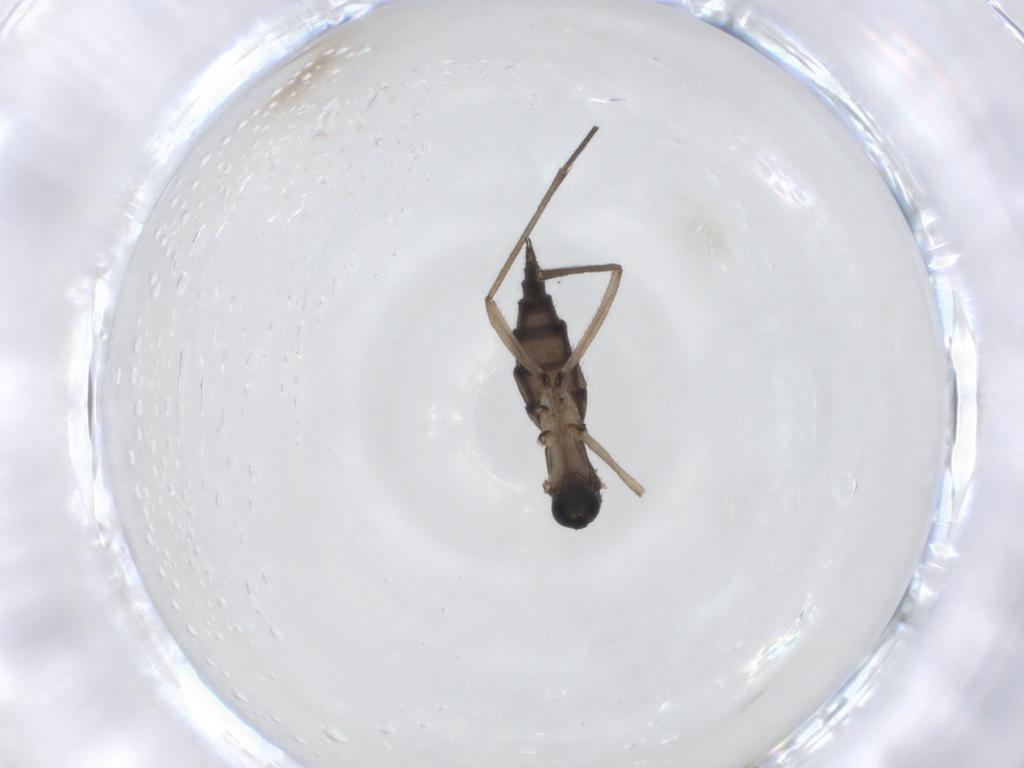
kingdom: Animalia
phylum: Arthropoda
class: Insecta
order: Diptera
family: Sciaridae
